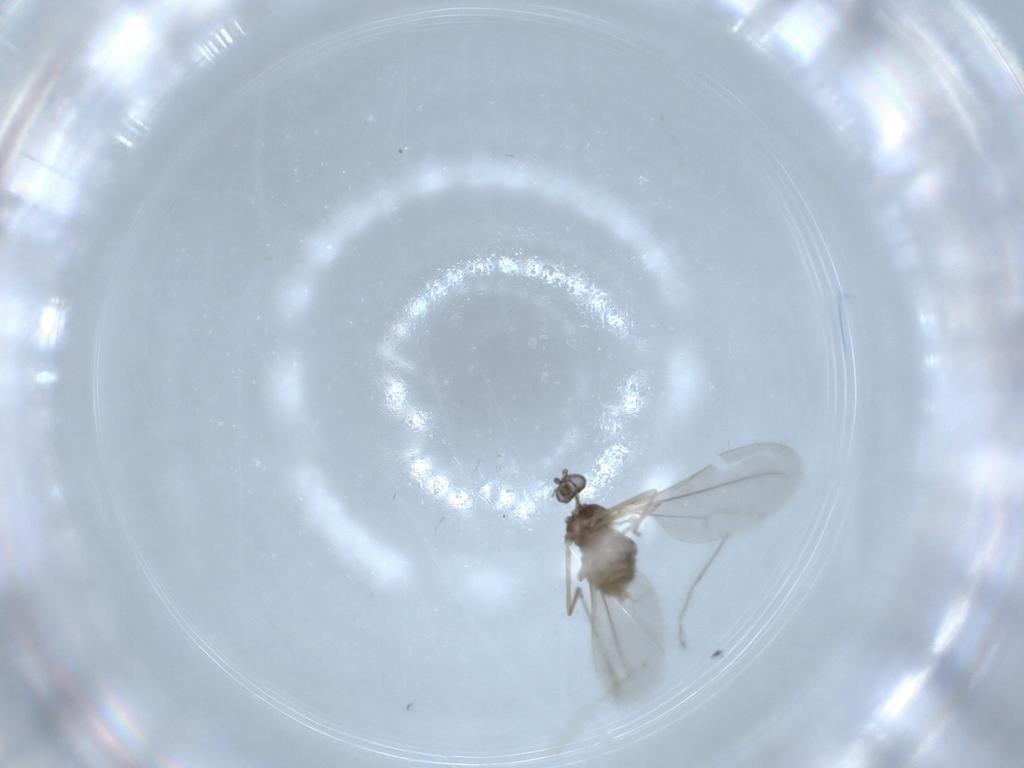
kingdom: Animalia
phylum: Arthropoda
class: Insecta
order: Diptera
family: Cecidomyiidae
